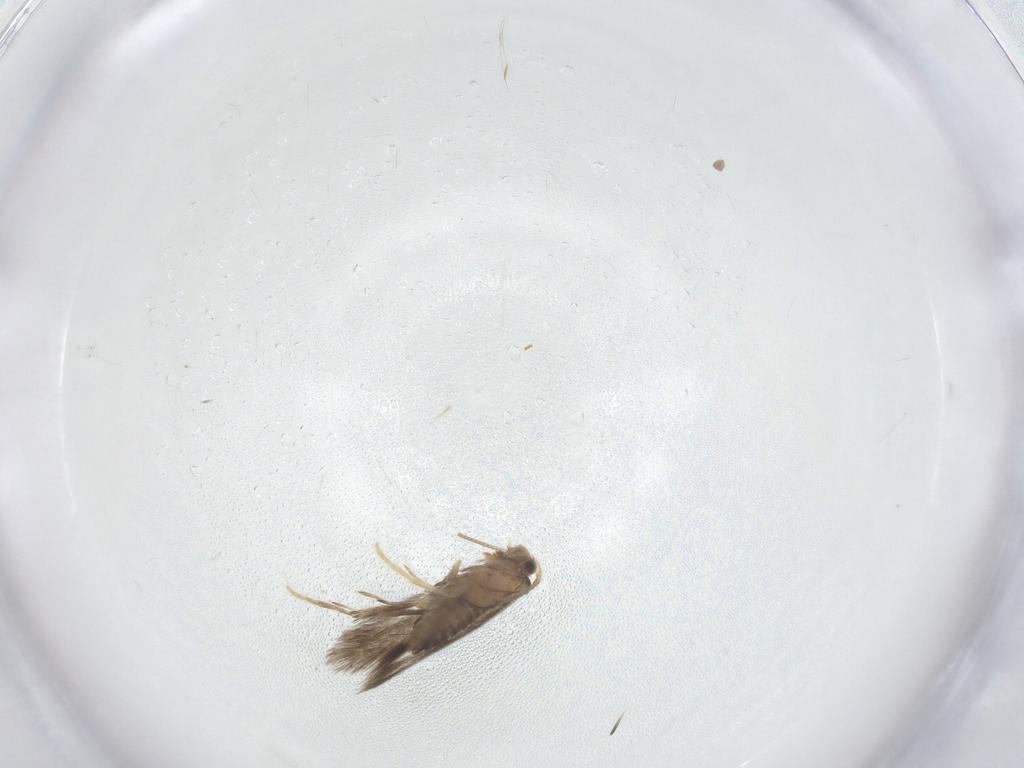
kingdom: Animalia
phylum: Arthropoda
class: Insecta
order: Lepidoptera
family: Nepticulidae
